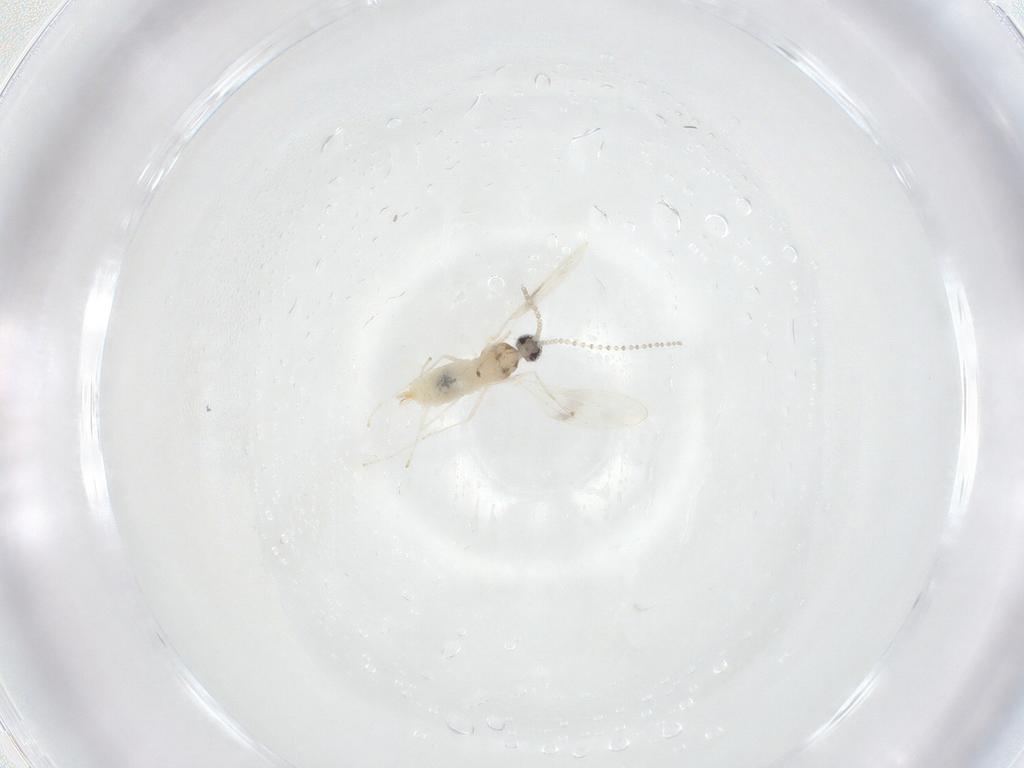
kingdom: Animalia
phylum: Arthropoda
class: Insecta
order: Diptera
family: Cecidomyiidae
